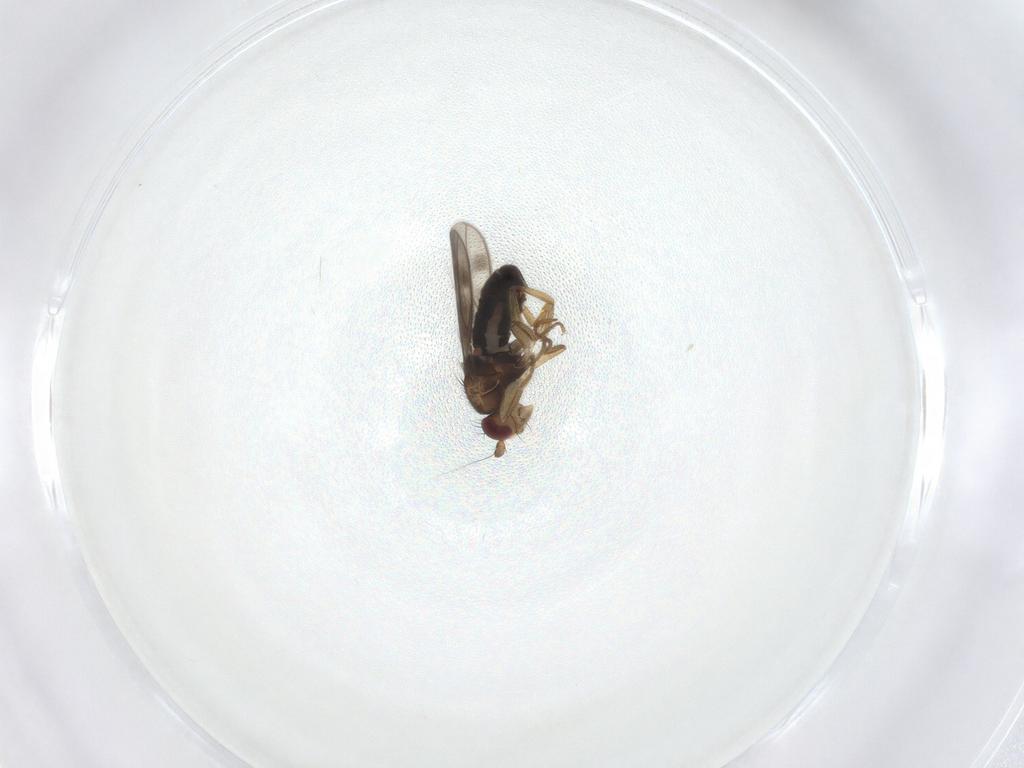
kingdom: Animalia
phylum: Arthropoda
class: Insecta
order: Diptera
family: Sphaeroceridae
